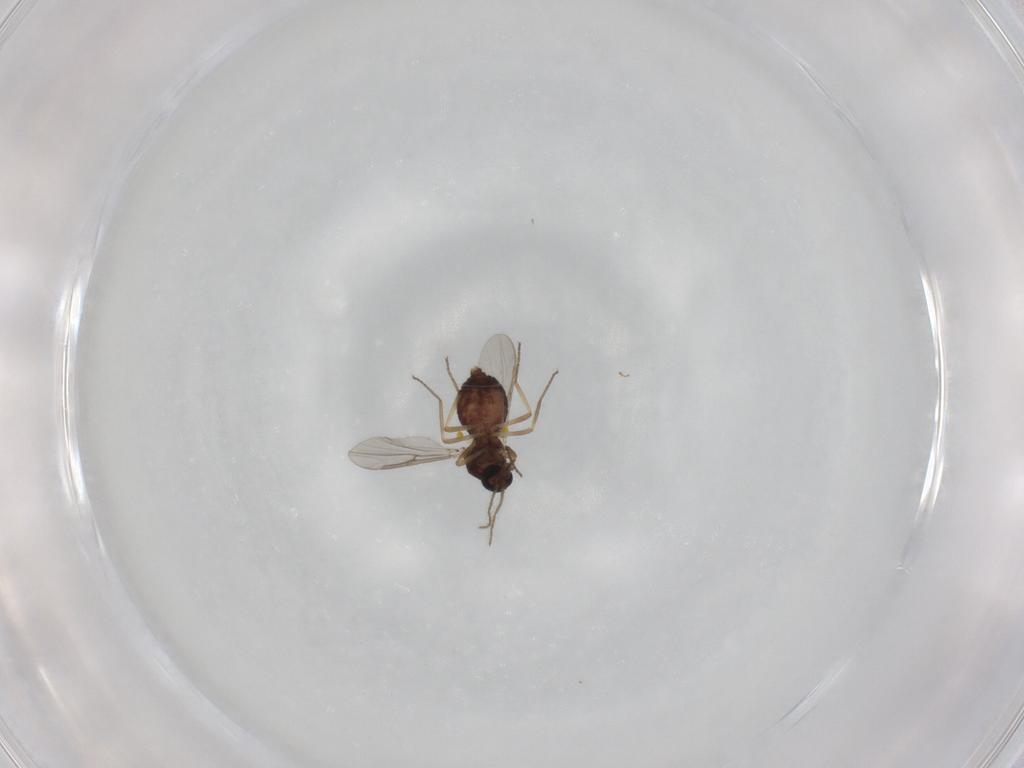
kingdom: Animalia
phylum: Arthropoda
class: Insecta
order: Diptera
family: Ceratopogonidae
